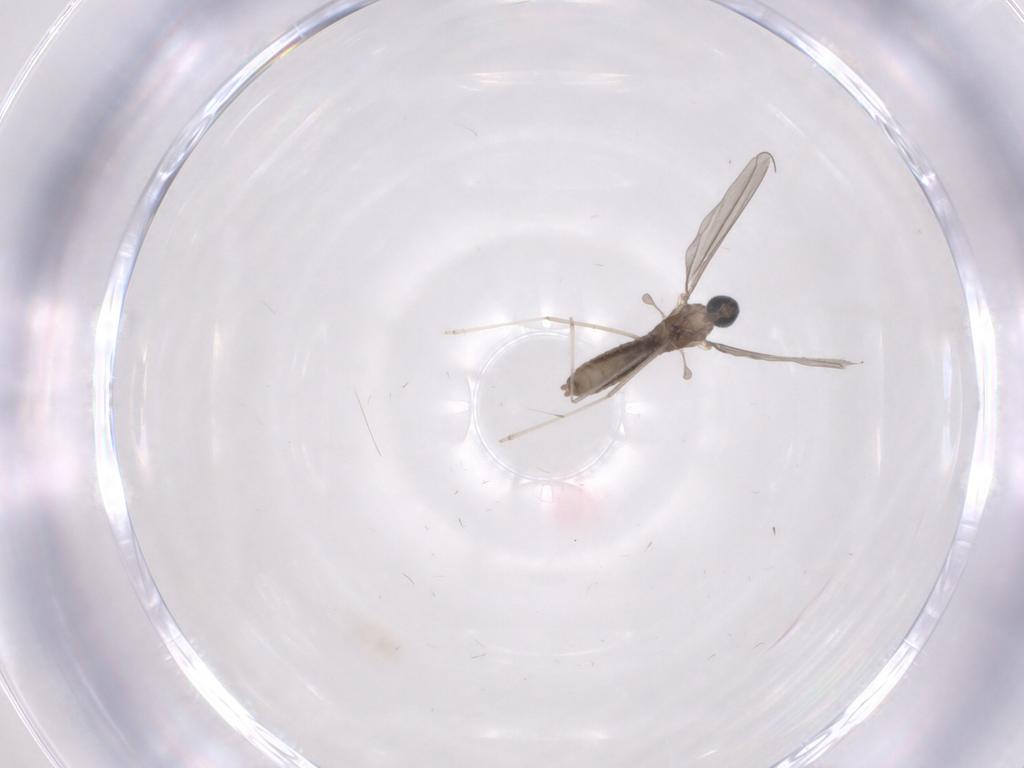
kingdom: Animalia
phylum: Arthropoda
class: Insecta
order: Diptera
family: Cecidomyiidae
